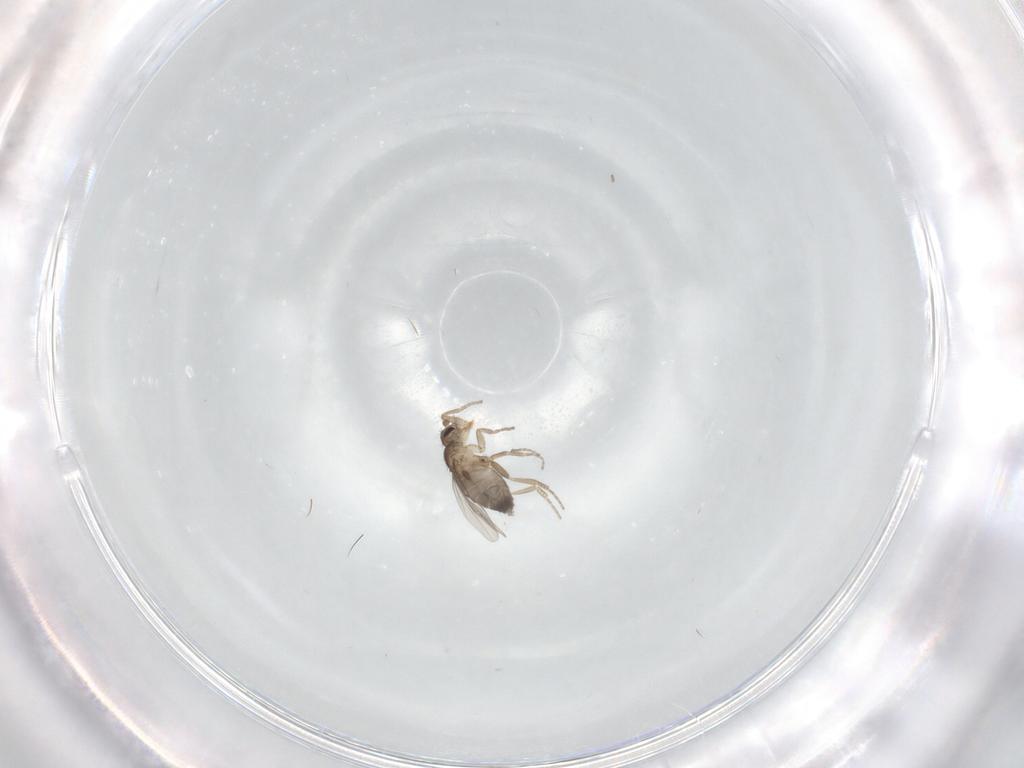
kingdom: Animalia
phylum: Arthropoda
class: Insecta
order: Diptera
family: Phoridae
